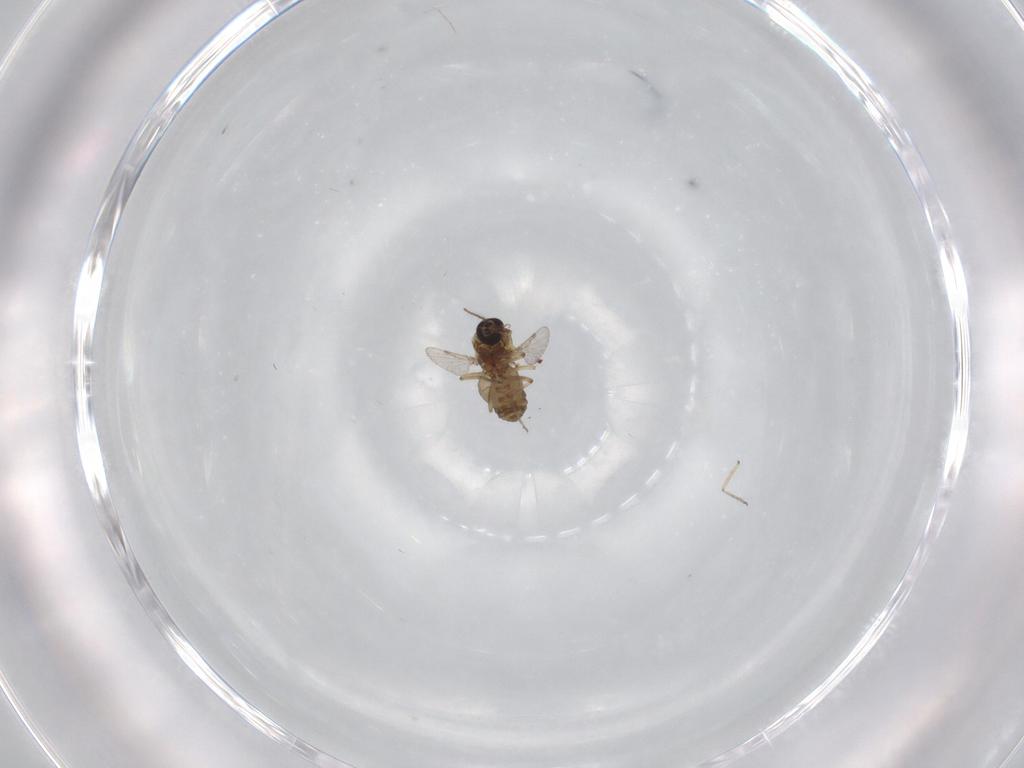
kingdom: Animalia
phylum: Arthropoda
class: Insecta
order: Diptera
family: Ceratopogonidae
